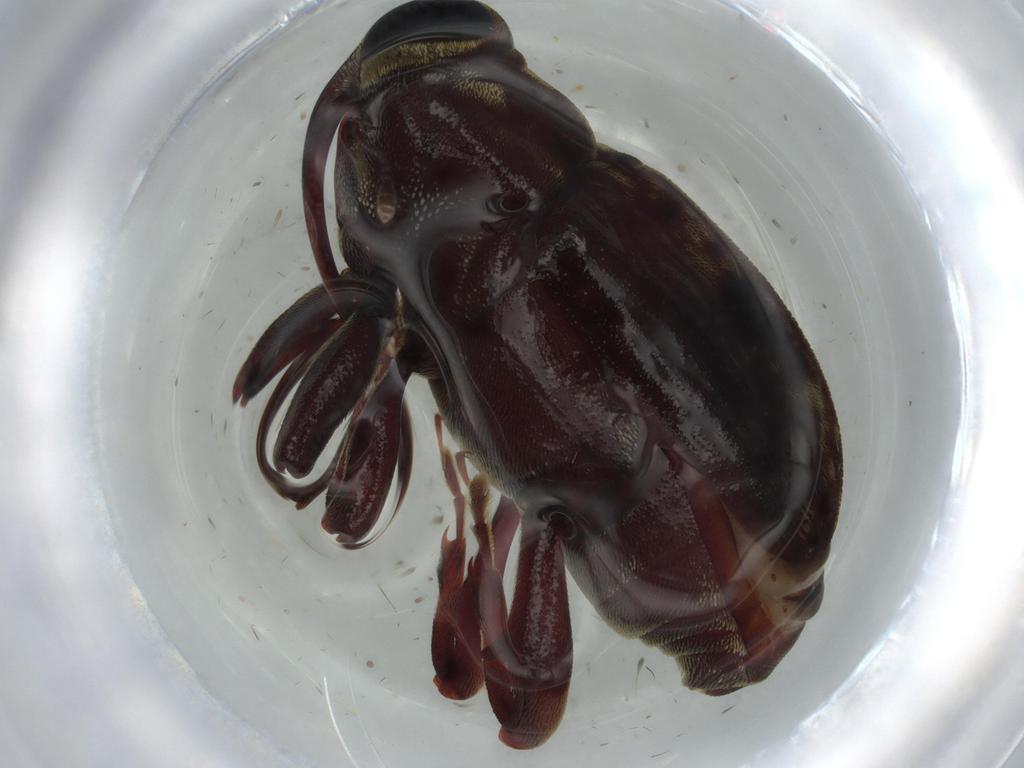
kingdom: Animalia
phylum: Arthropoda
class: Insecta
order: Coleoptera
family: Curculionidae
